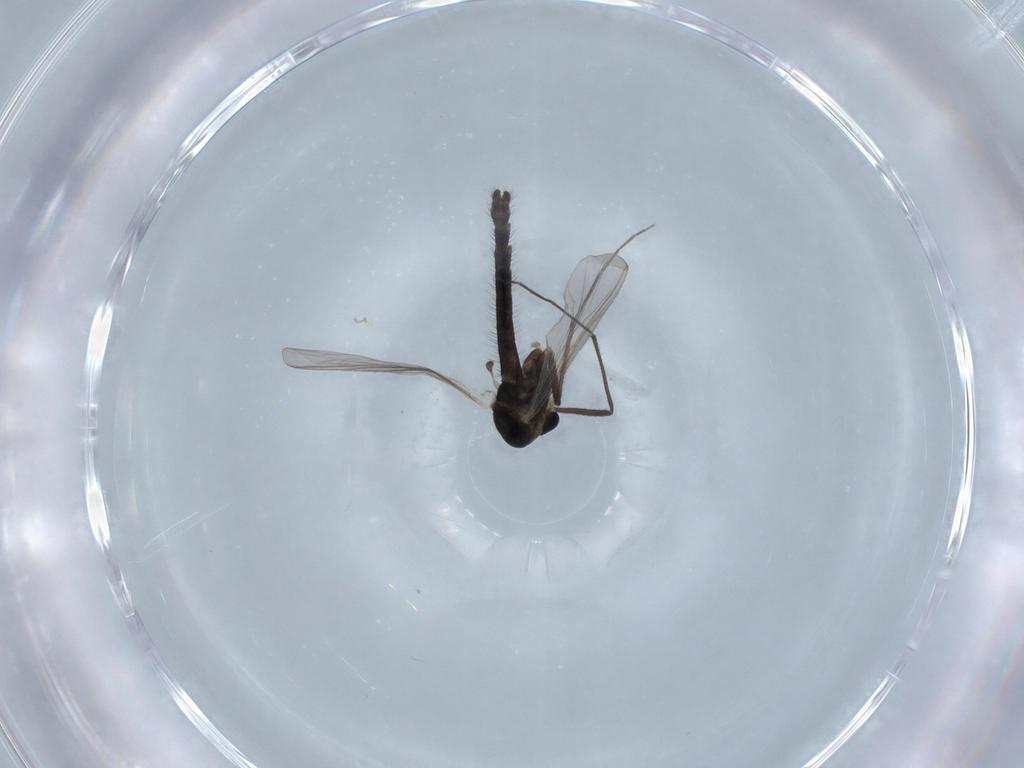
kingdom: Animalia
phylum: Arthropoda
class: Insecta
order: Diptera
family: Chironomidae
